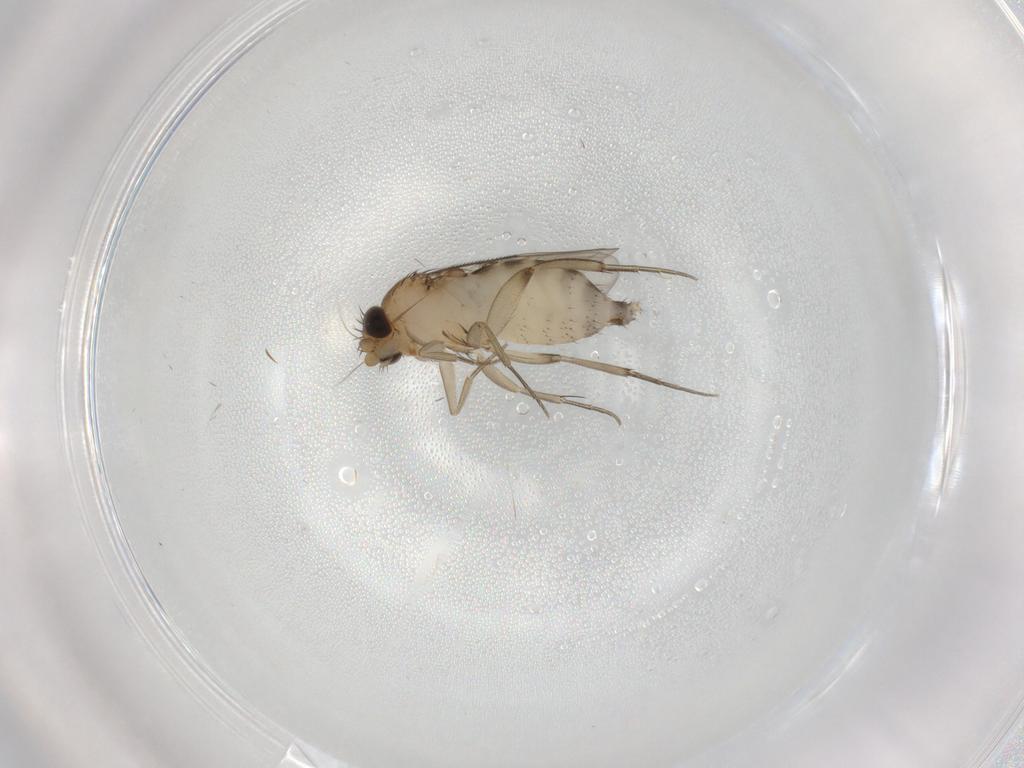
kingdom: Animalia
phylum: Arthropoda
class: Insecta
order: Diptera
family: Phoridae
